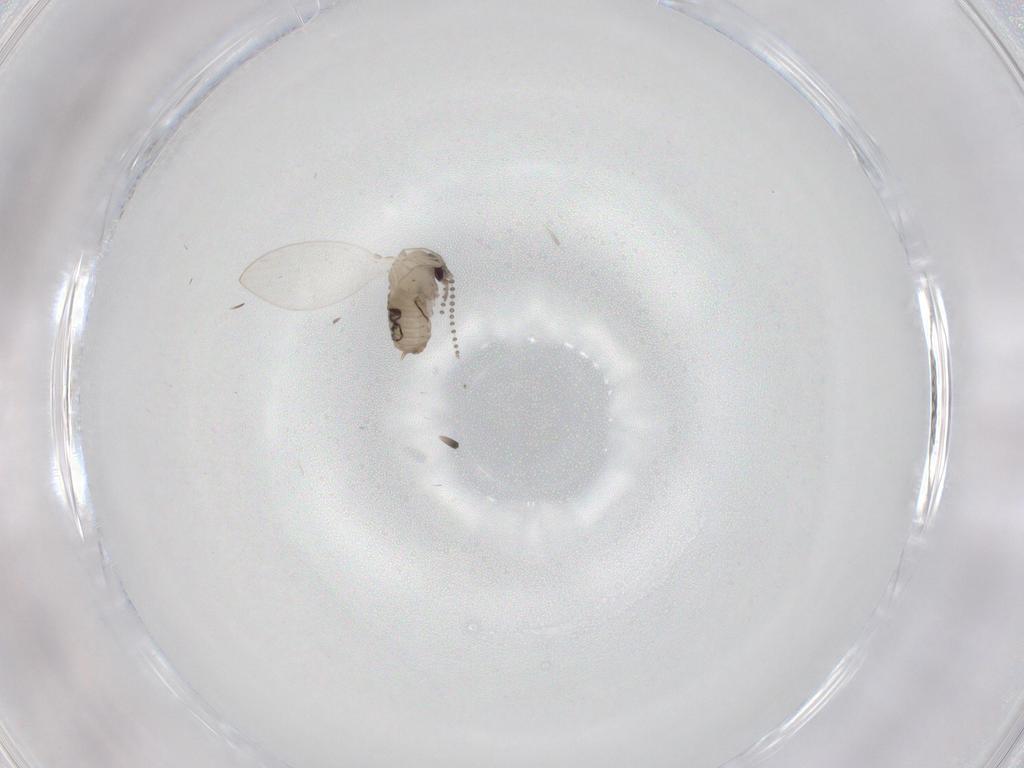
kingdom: Animalia
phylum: Arthropoda
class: Insecta
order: Diptera
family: Psychodidae
